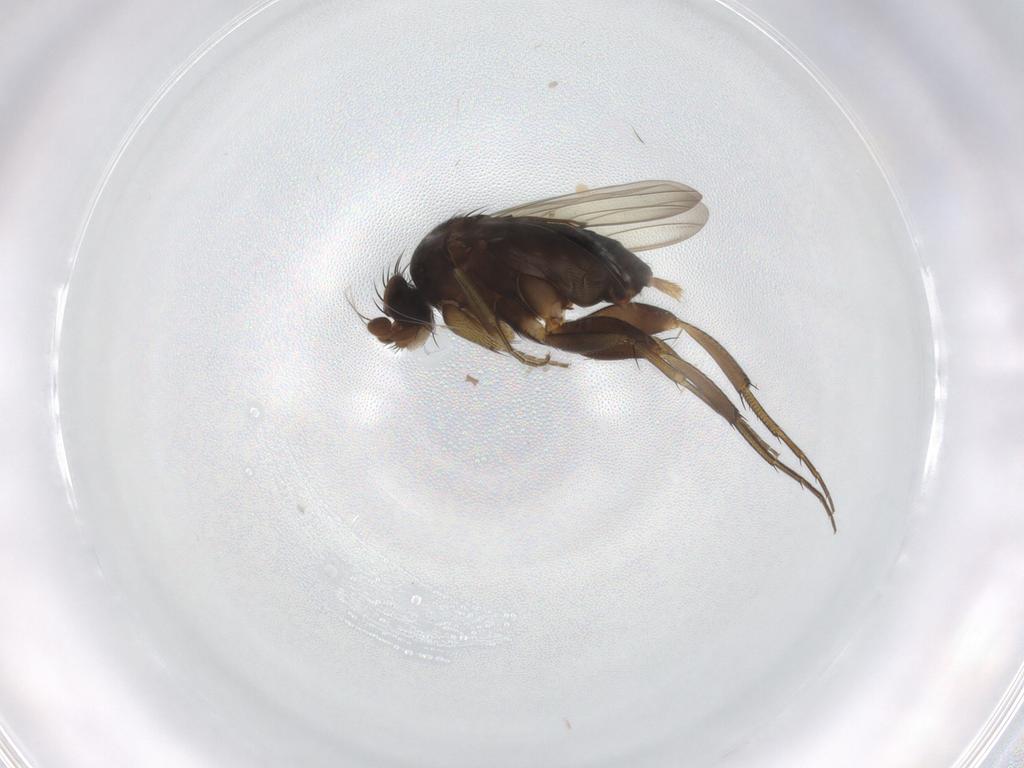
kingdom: Animalia
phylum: Arthropoda
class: Insecta
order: Diptera
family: Phoridae
